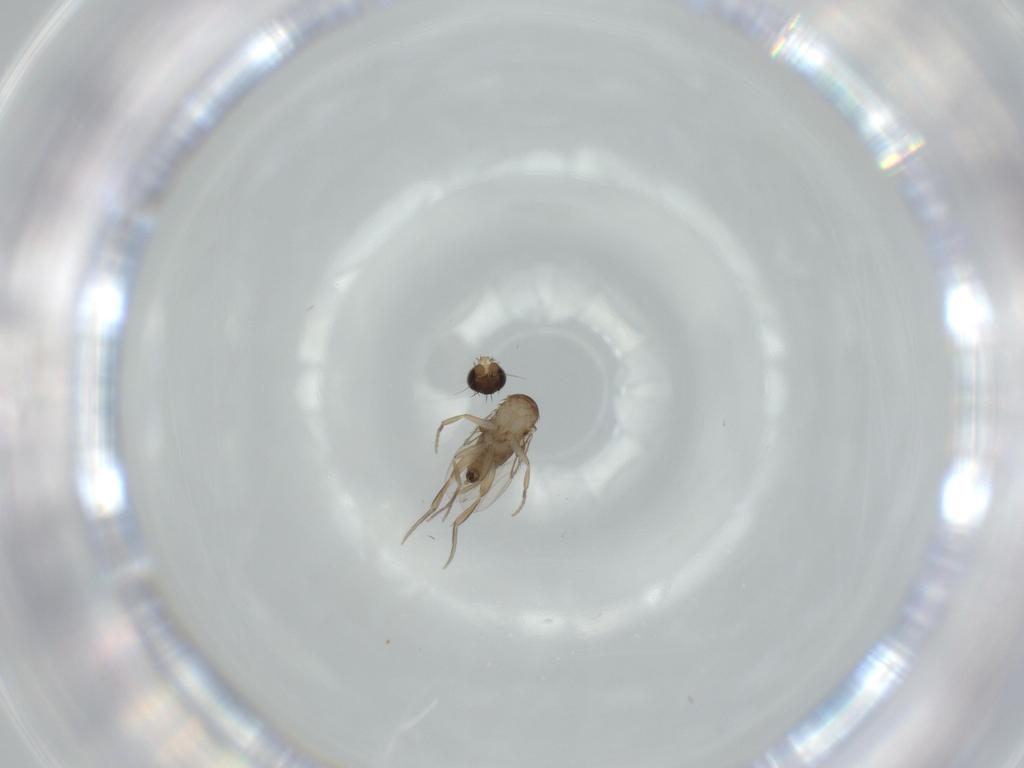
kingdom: Animalia
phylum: Arthropoda
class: Insecta
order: Diptera
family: Phoridae
